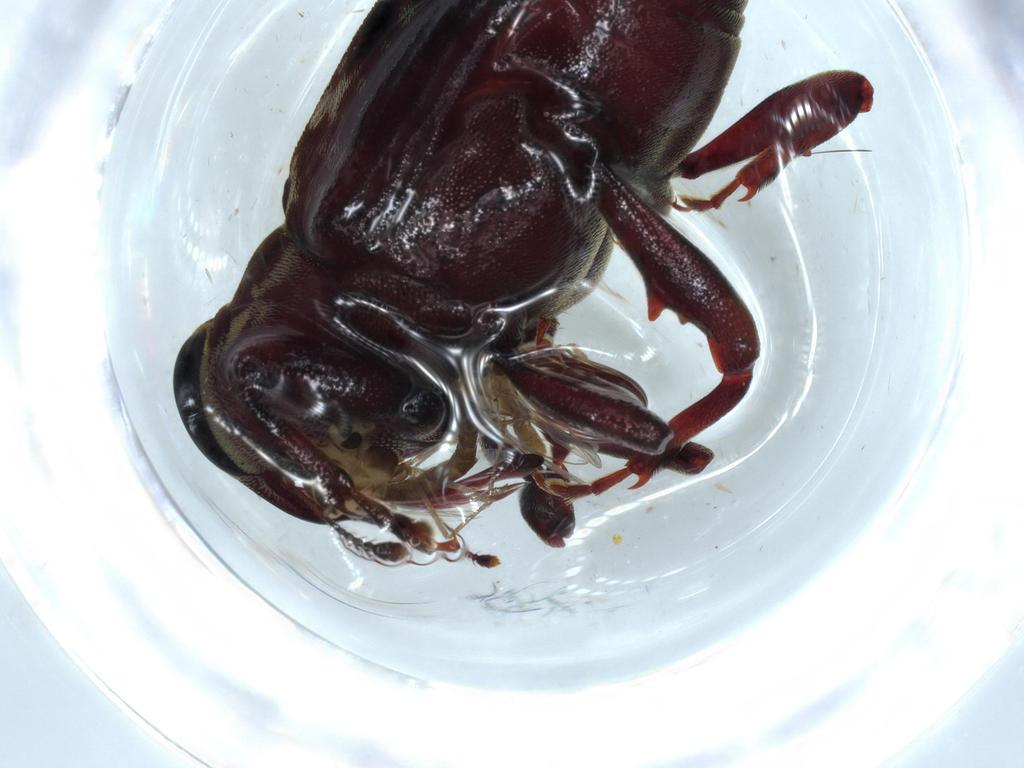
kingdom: Animalia
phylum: Arthropoda
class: Insecta
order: Coleoptera
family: Curculionidae
